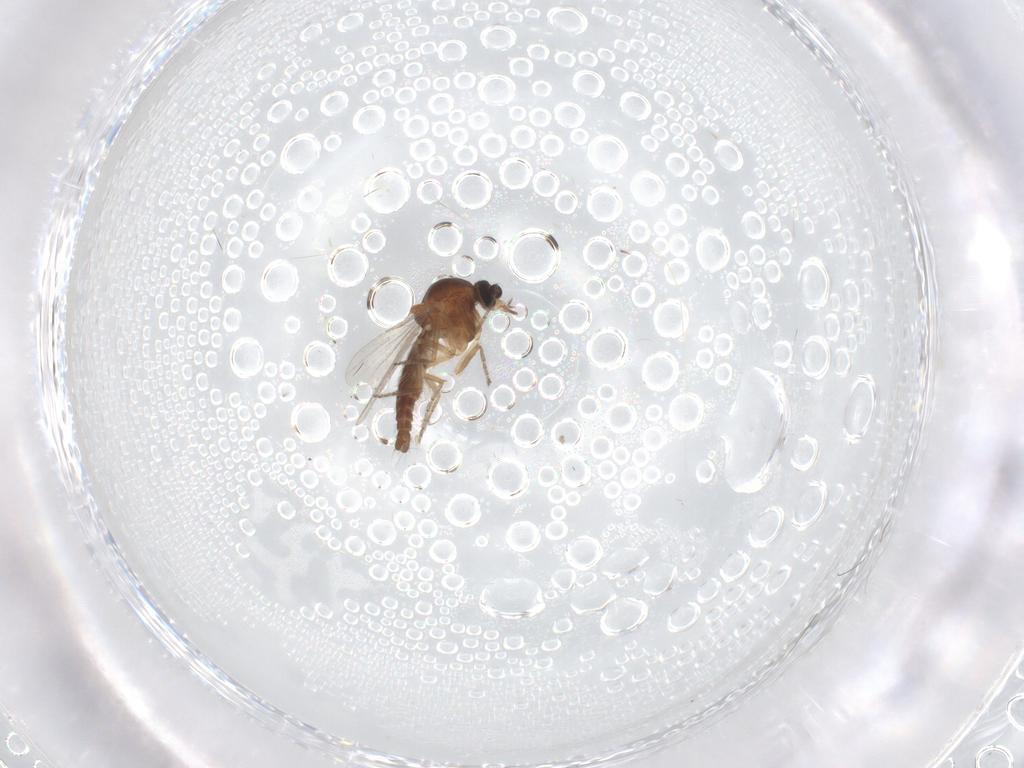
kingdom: Animalia
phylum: Arthropoda
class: Insecta
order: Diptera
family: Ceratopogonidae
